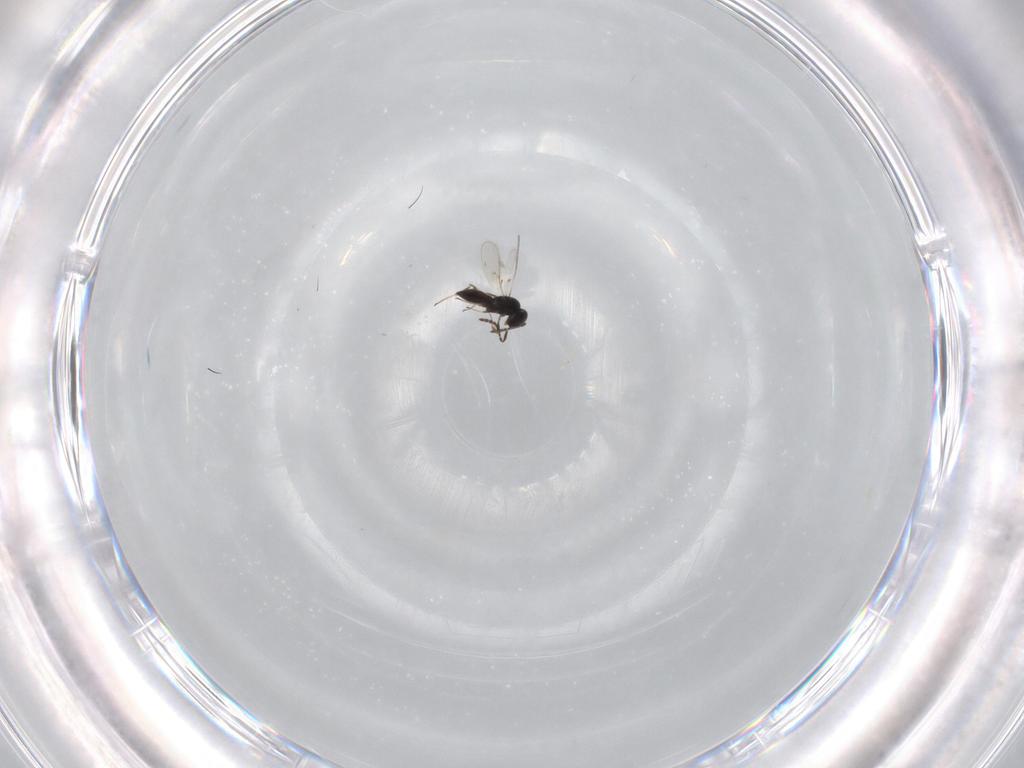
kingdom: Animalia
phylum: Arthropoda
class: Insecta
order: Hymenoptera
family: Scelionidae
